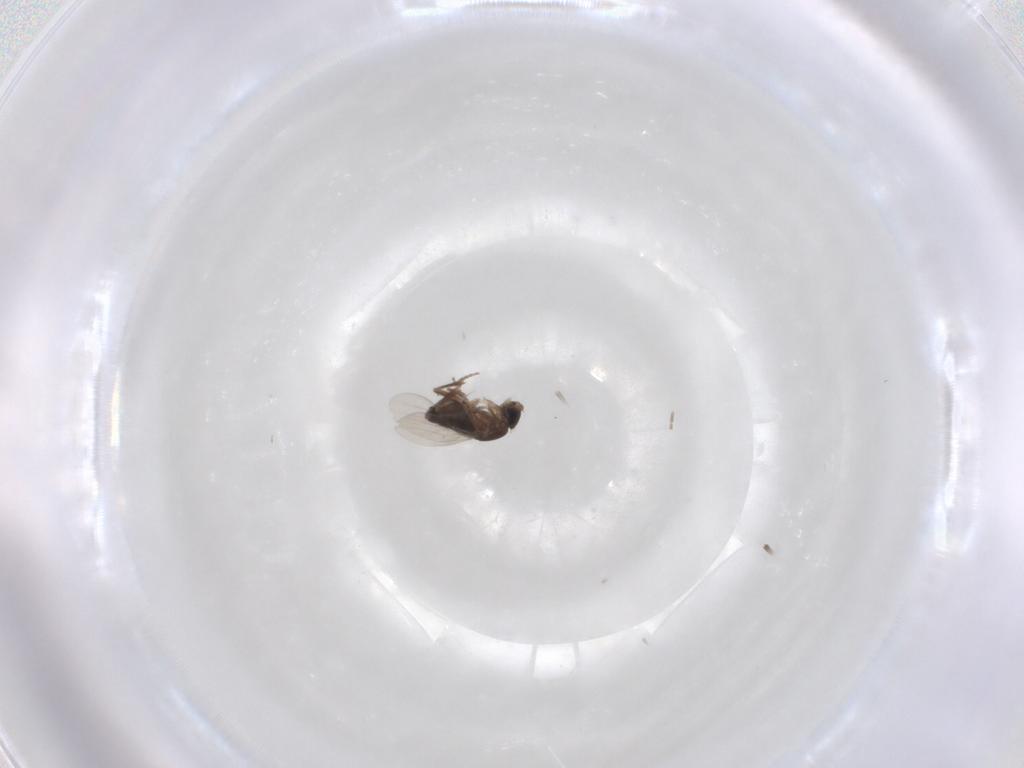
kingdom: Animalia
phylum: Arthropoda
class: Insecta
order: Diptera
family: Phoridae
